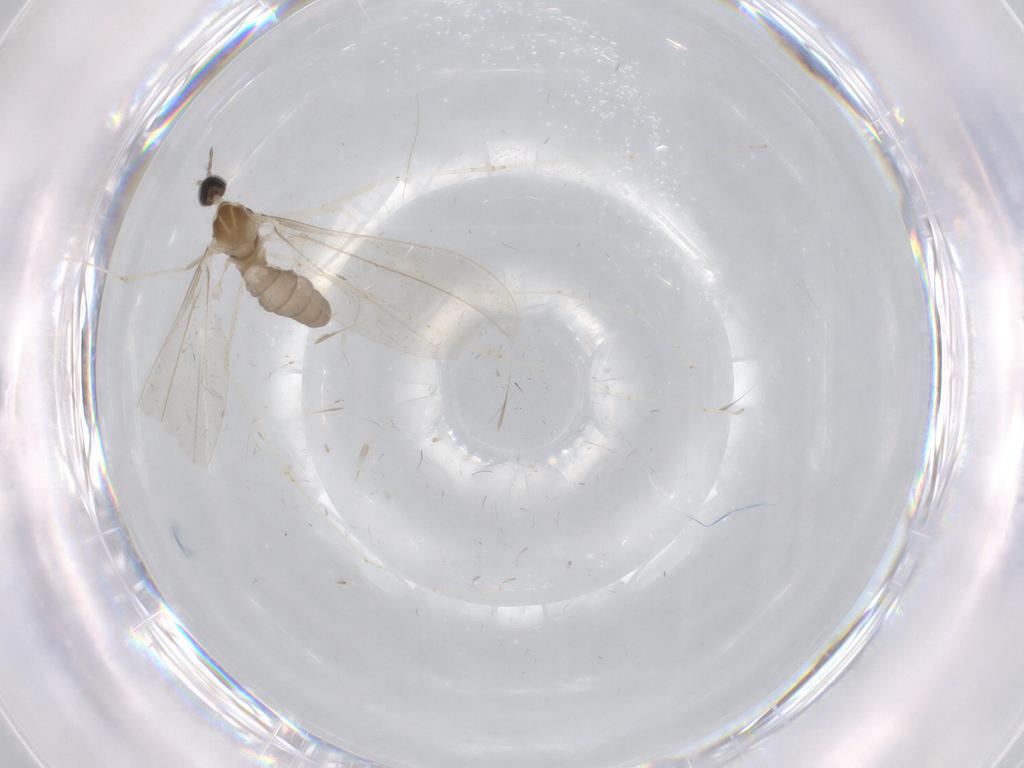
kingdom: Animalia
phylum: Arthropoda
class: Insecta
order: Diptera
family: Cecidomyiidae
